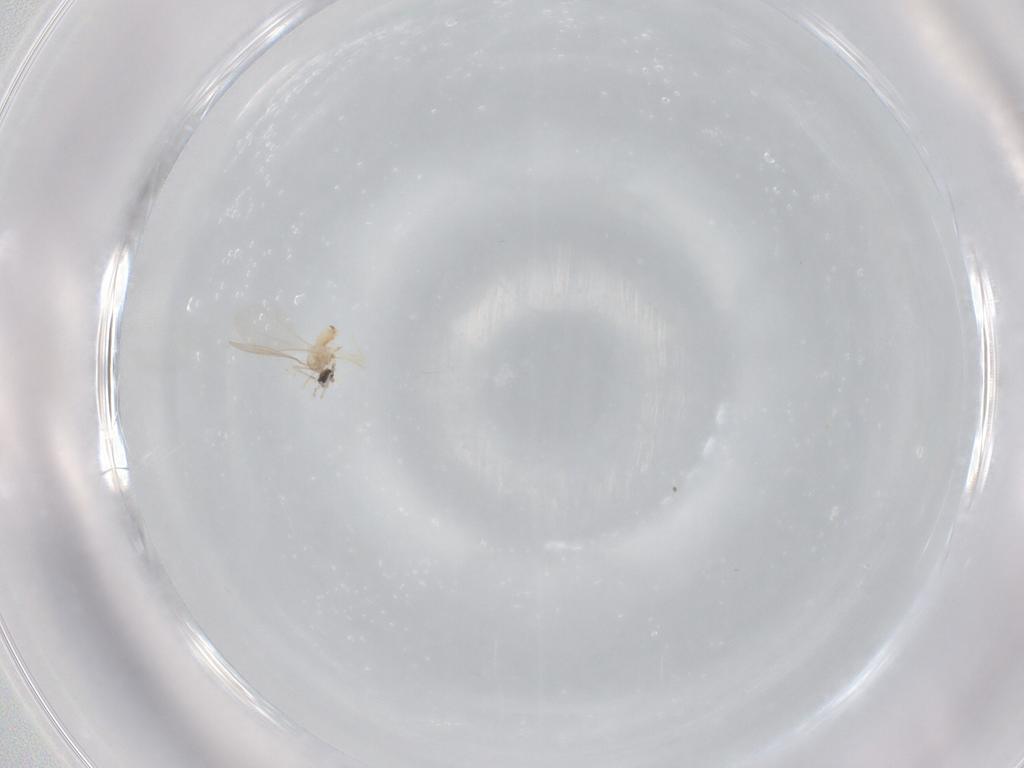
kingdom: Animalia
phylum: Arthropoda
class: Insecta
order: Diptera
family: Cecidomyiidae
